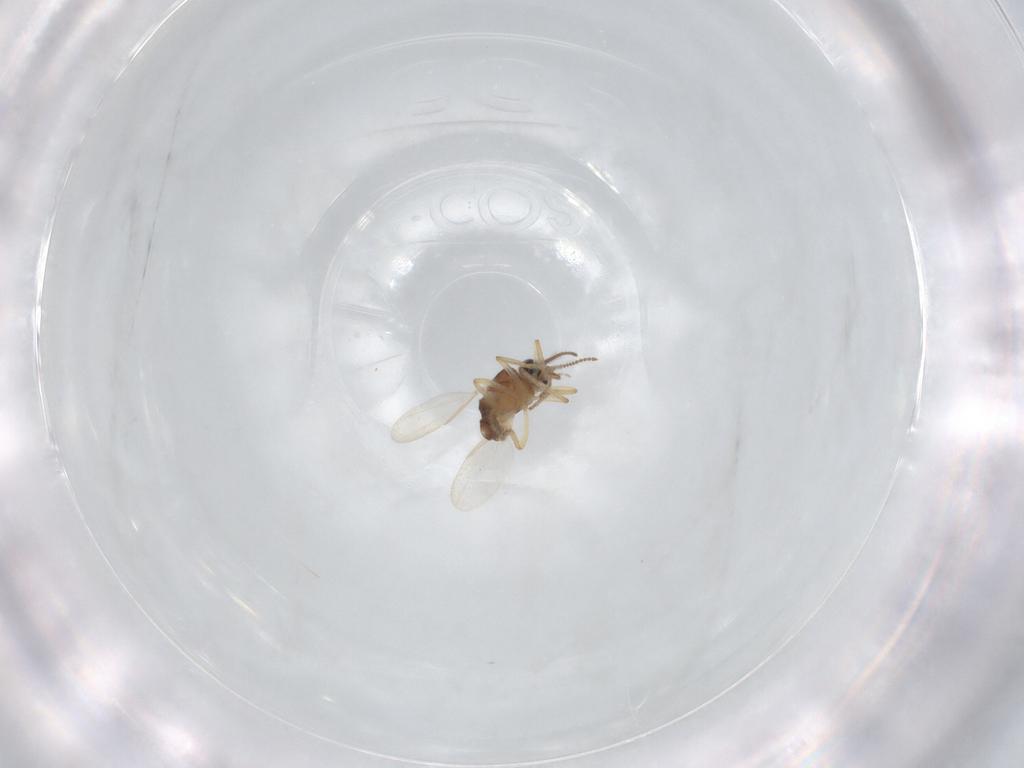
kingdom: Animalia
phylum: Arthropoda
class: Insecta
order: Diptera
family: Ceratopogonidae
